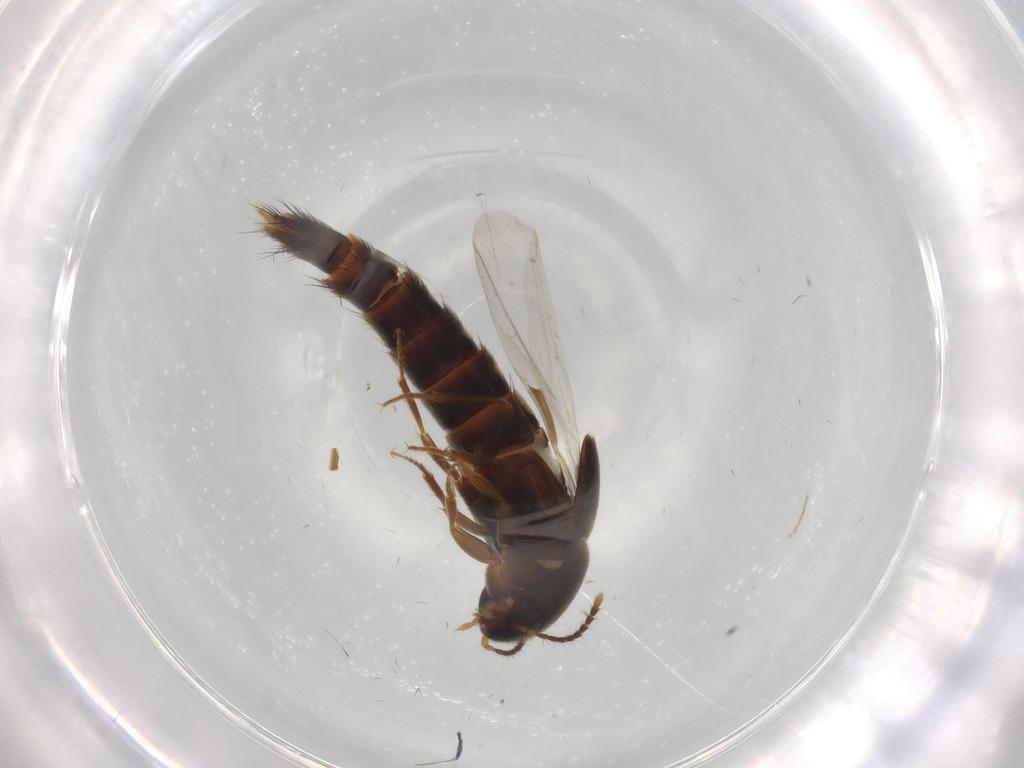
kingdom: Animalia
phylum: Arthropoda
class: Insecta
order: Coleoptera
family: Staphylinidae
